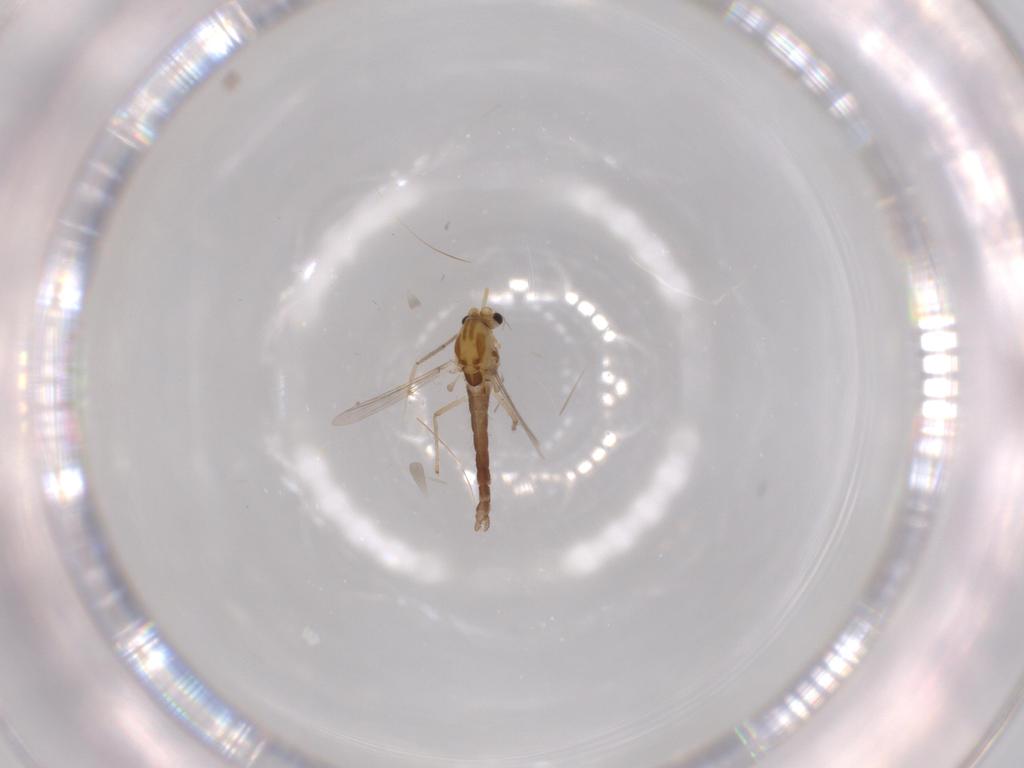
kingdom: Animalia
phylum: Arthropoda
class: Insecta
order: Diptera
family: Chironomidae
